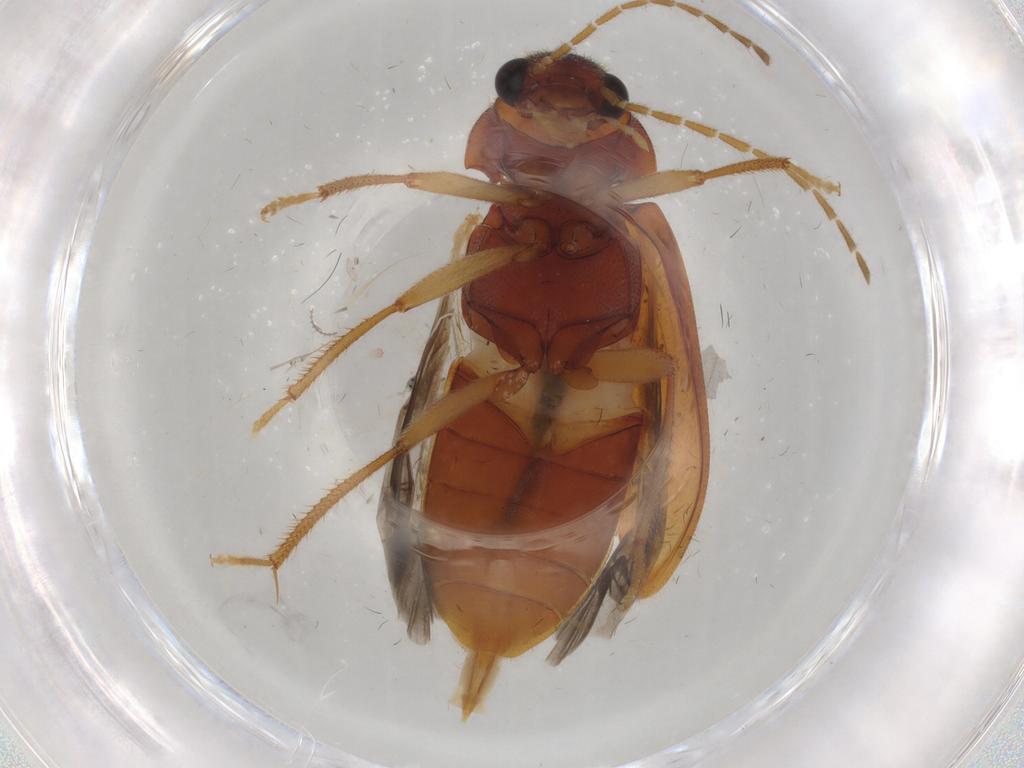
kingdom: Animalia
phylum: Arthropoda
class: Insecta
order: Coleoptera
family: Ptilodactylidae
